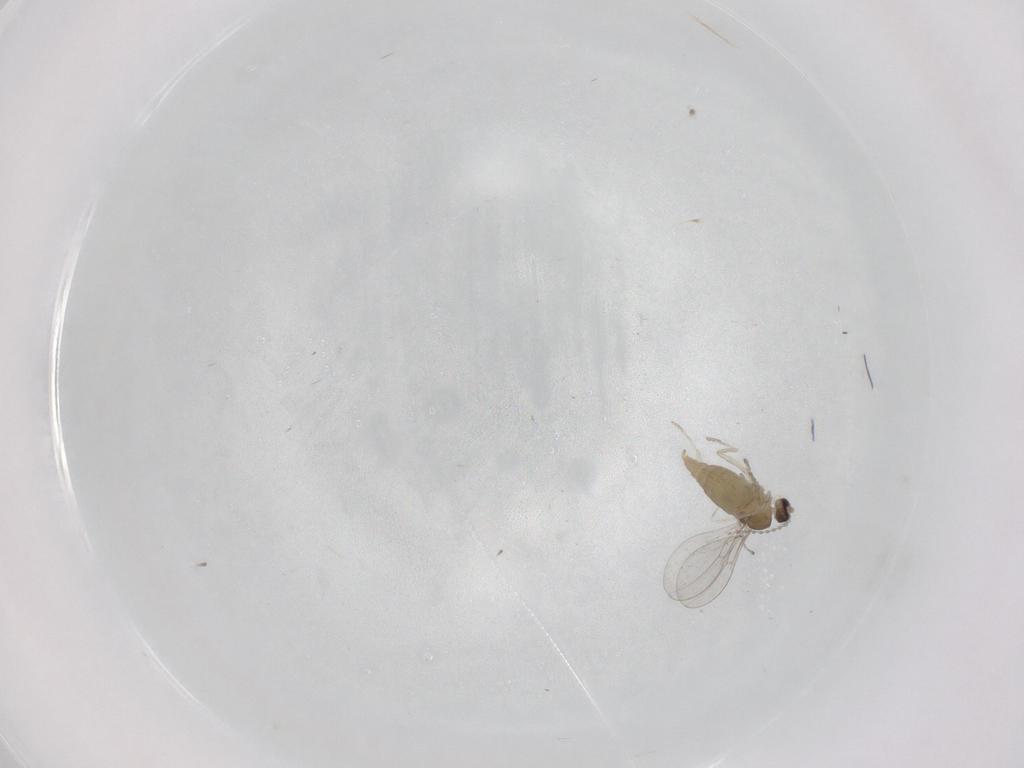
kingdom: Animalia
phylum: Arthropoda
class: Insecta
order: Diptera
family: Cecidomyiidae
